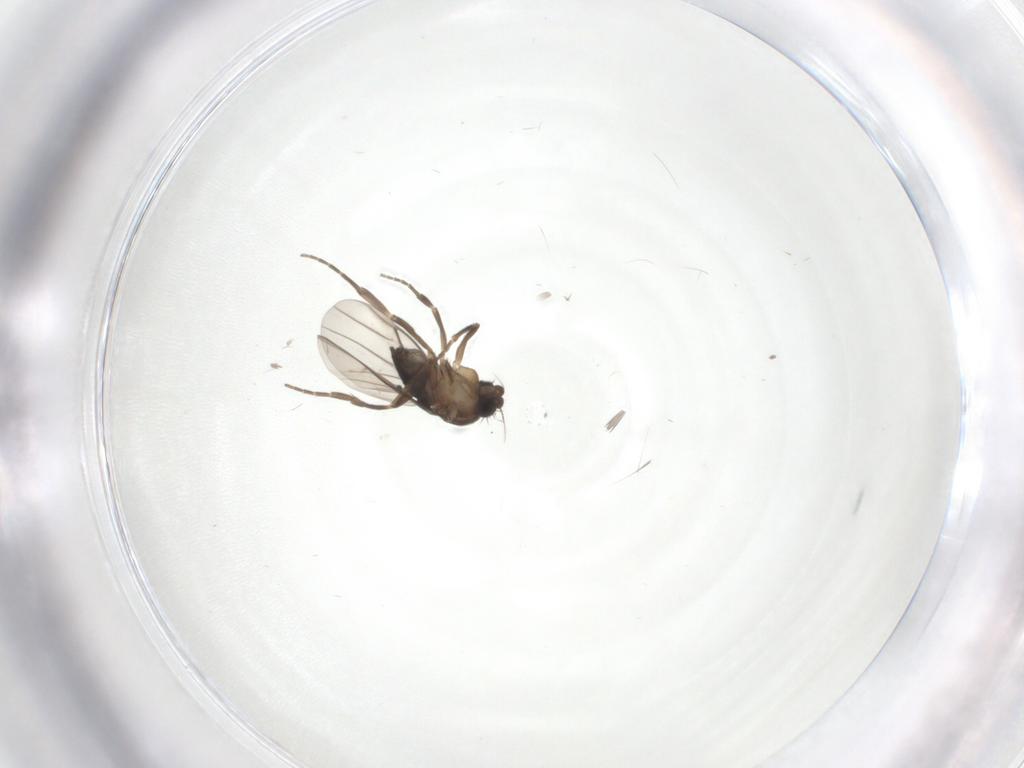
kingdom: Animalia
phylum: Arthropoda
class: Insecta
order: Diptera
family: Phoridae
